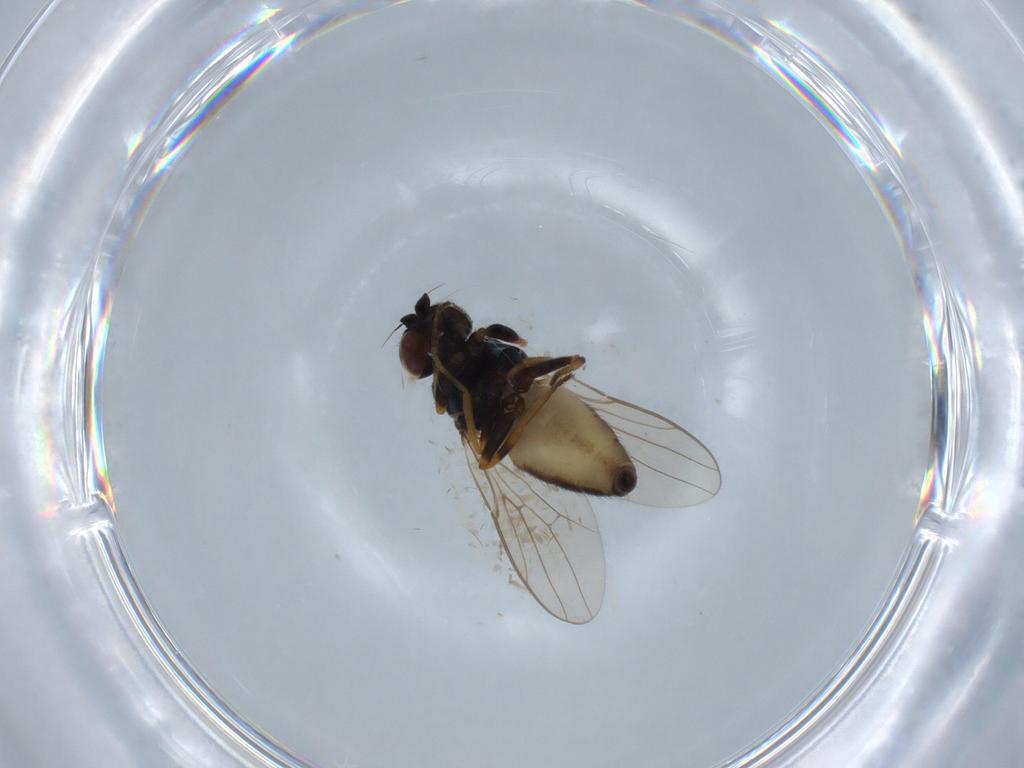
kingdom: Animalia
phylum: Arthropoda
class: Insecta
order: Diptera
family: Chloropidae
